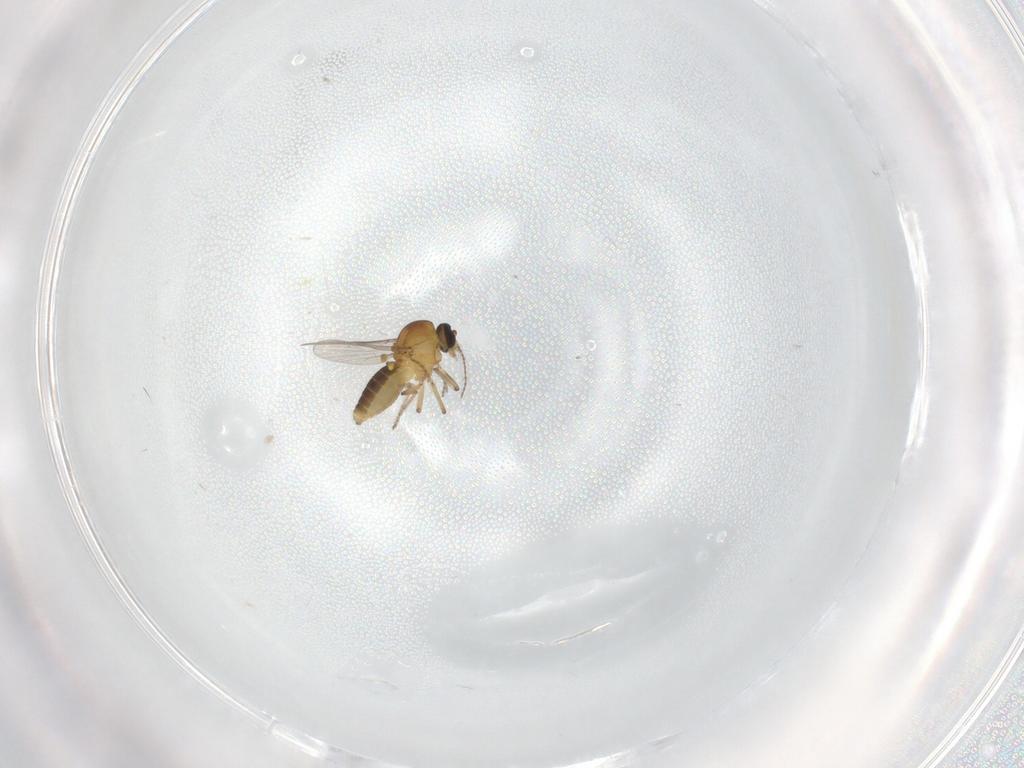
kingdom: Animalia
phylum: Arthropoda
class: Insecta
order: Diptera
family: Ceratopogonidae
